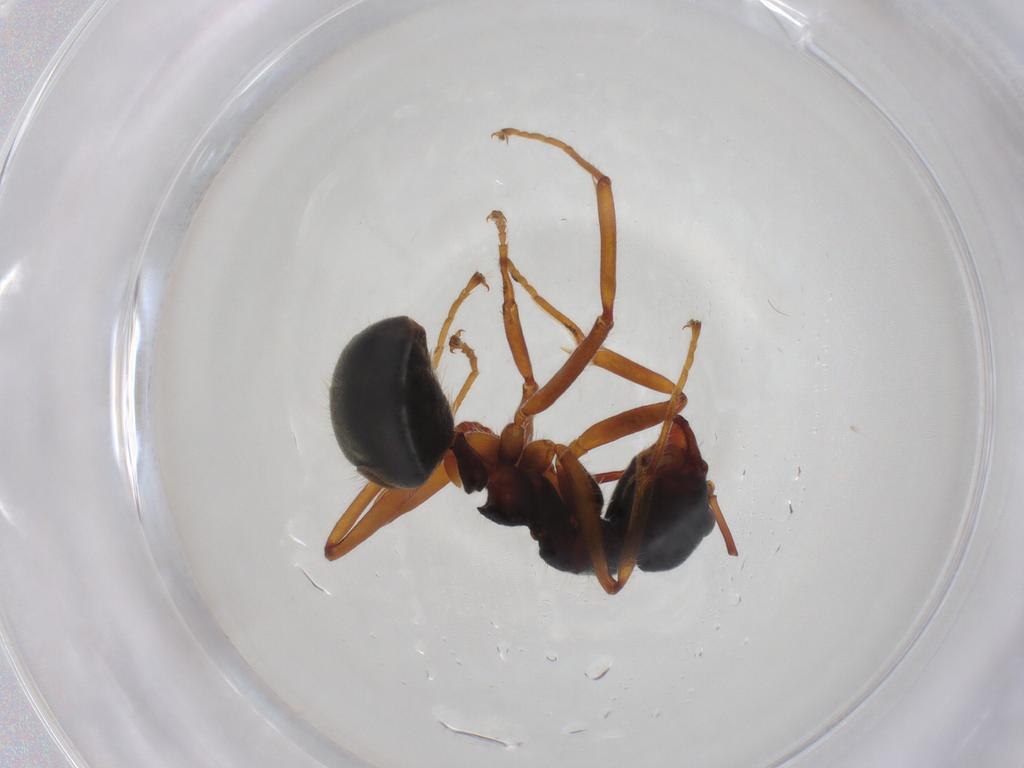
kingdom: Animalia
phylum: Arthropoda
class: Insecta
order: Hymenoptera
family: Formicidae
